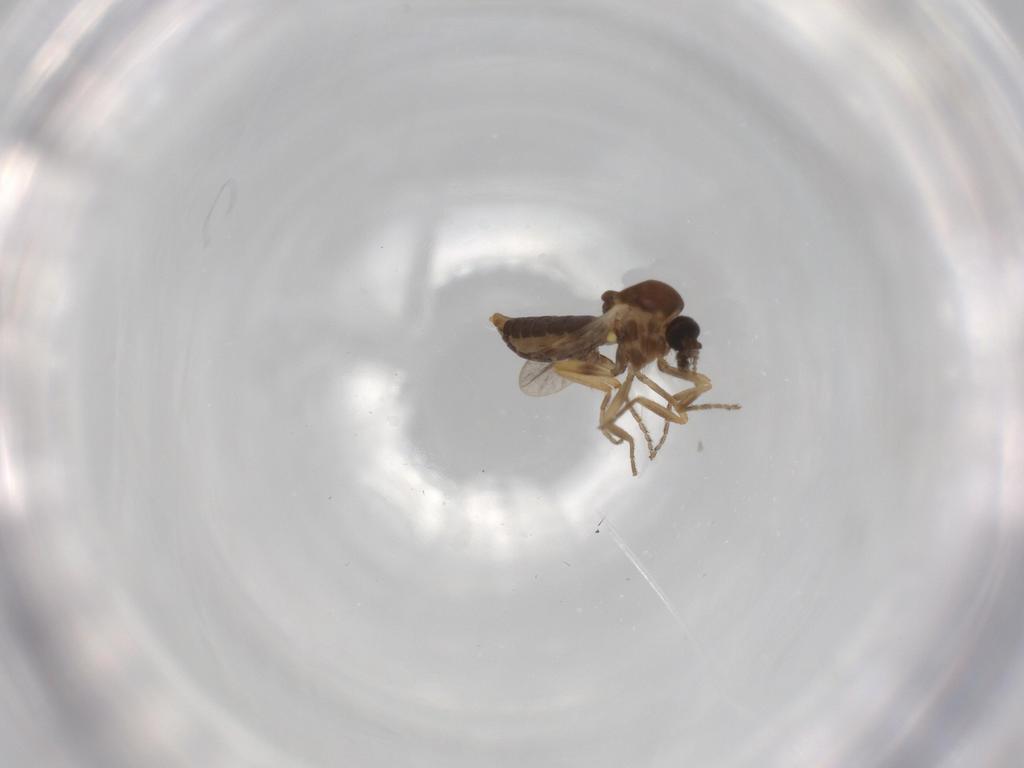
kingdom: Animalia
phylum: Arthropoda
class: Insecta
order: Diptera
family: Ceratopogonidae
